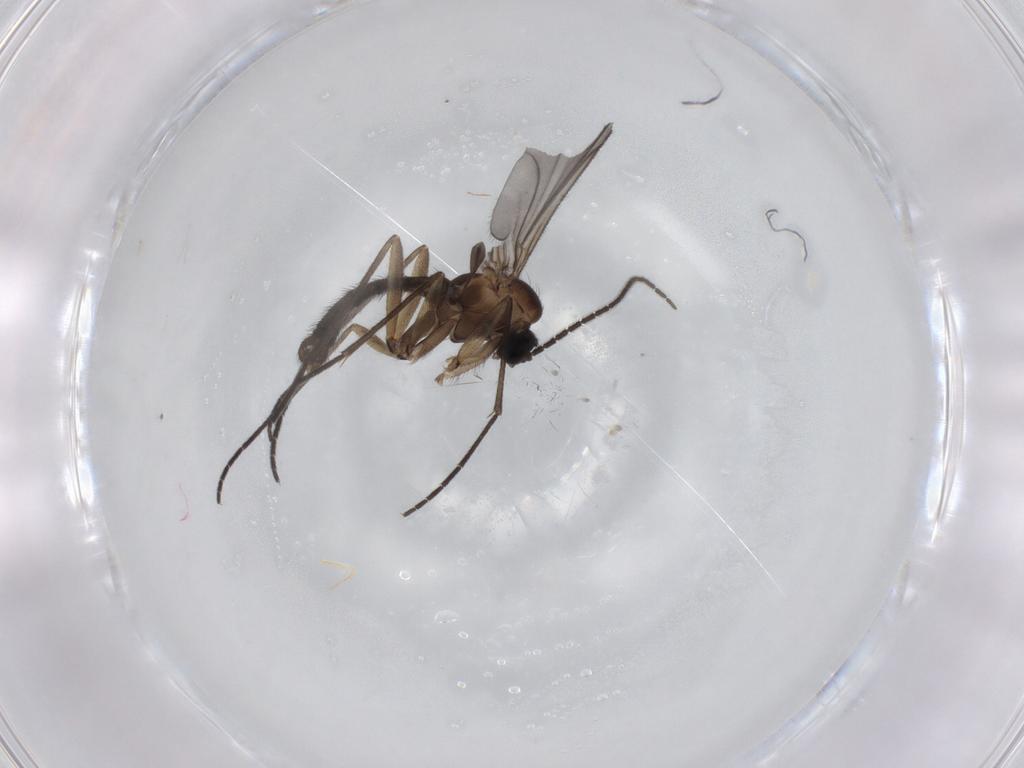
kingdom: Animalia
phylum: Arthropoda
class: Insecta
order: Diptera
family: Sciaridae
